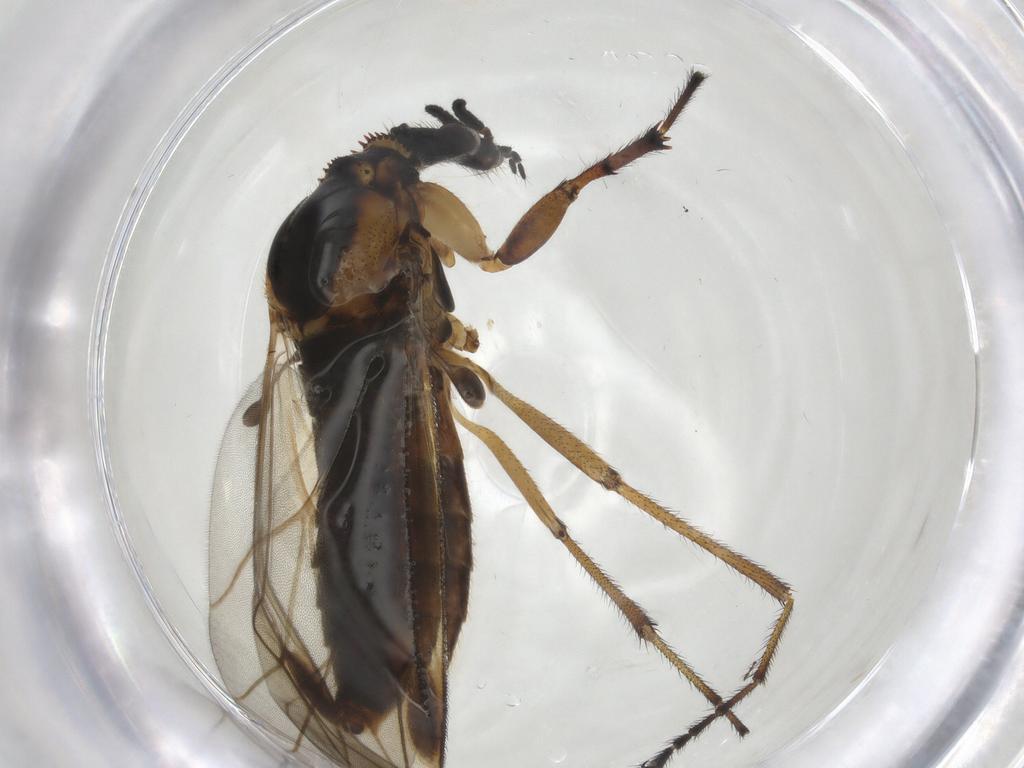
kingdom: Animalia
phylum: Arthropoda
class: Insecta
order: Diptera
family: Bibionidae
